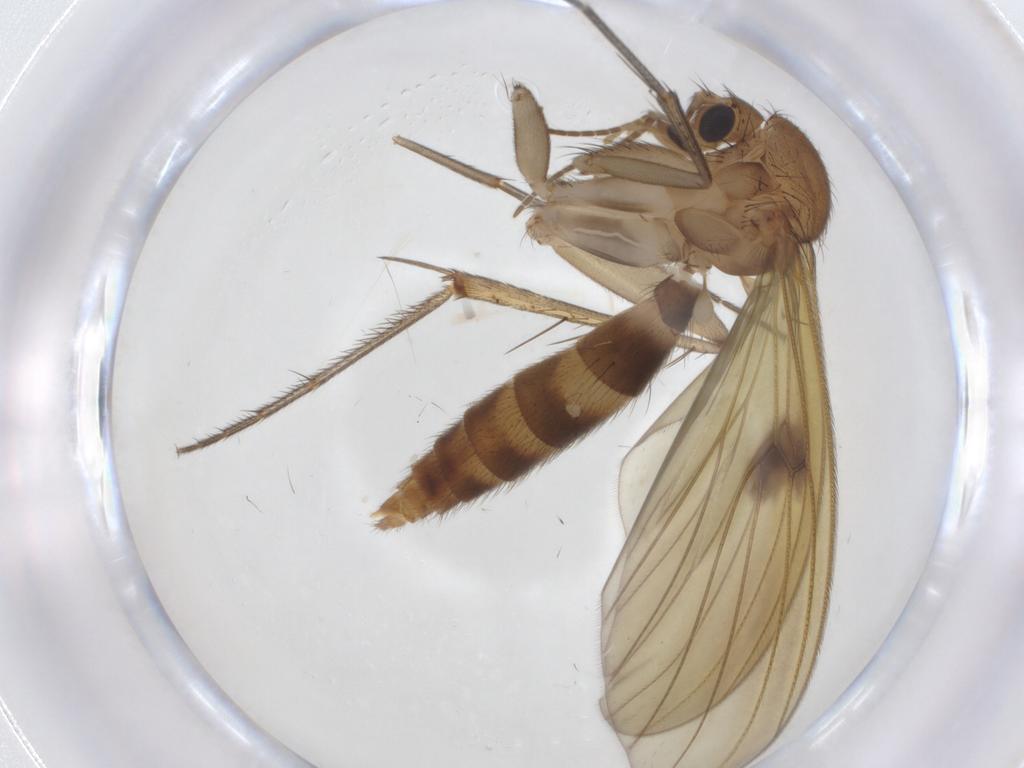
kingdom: Animalia
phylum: Arthropoda
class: Insecta
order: Diptera
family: Mycetophilidae
